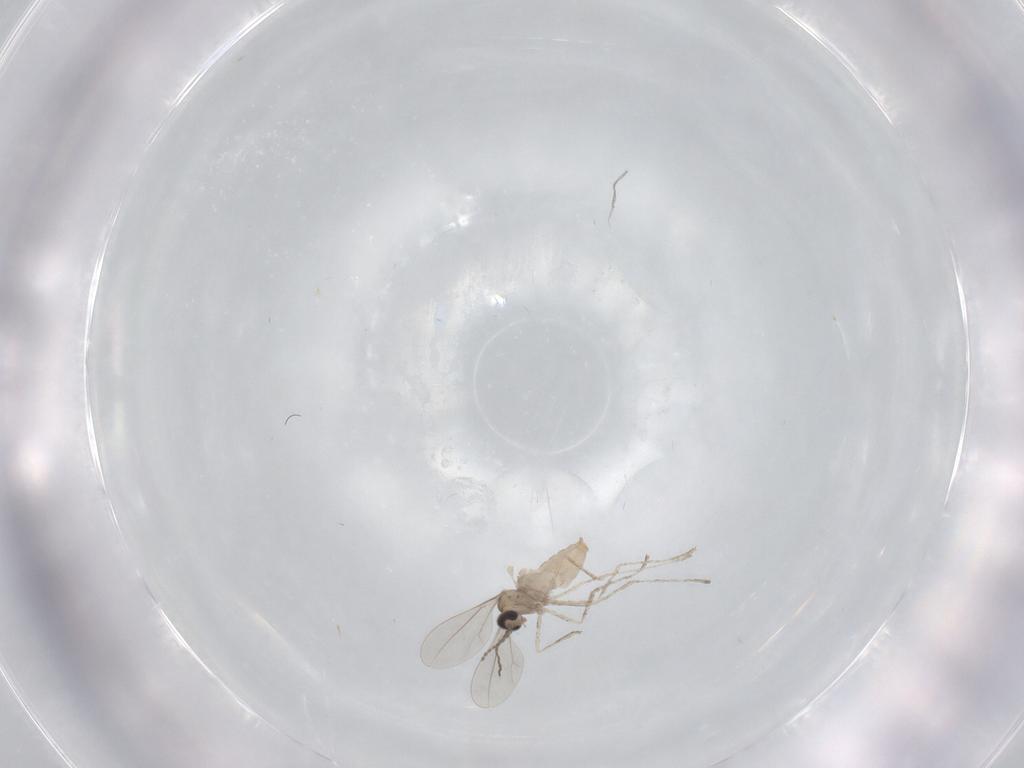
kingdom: Animalia
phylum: Arthropoda
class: Insecta
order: Diptera
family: Cecidomyiidae
